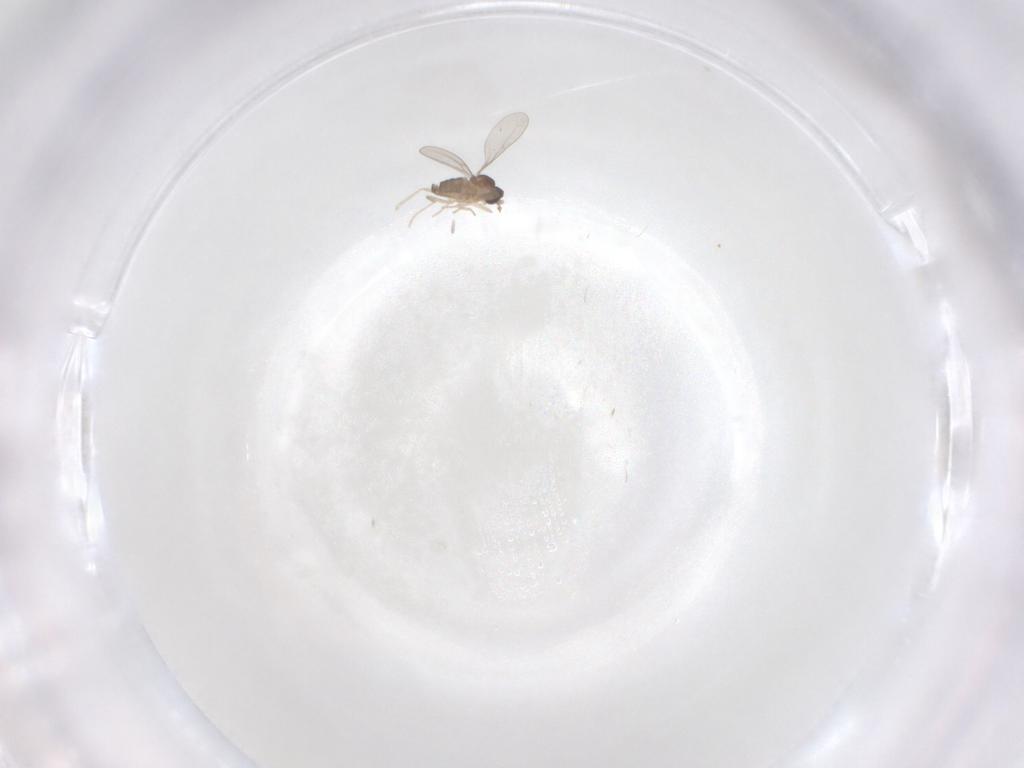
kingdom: Animalia
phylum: Arthropoda
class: Insecta
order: Diptera
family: Cecidomyiidae
